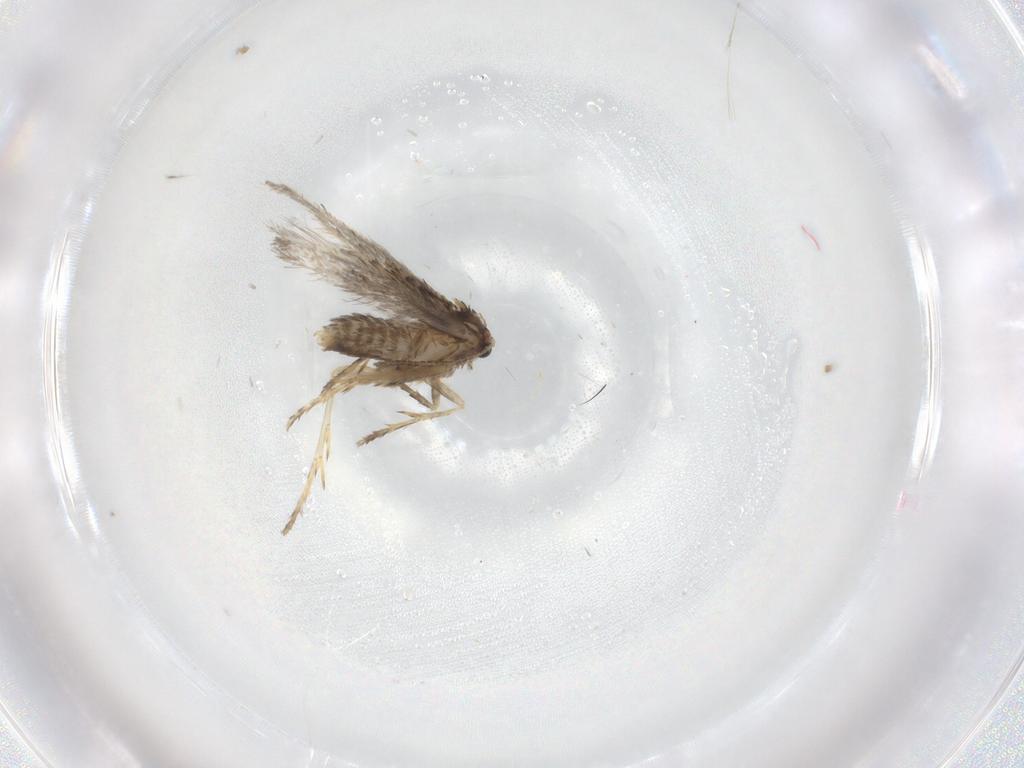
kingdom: Animalia
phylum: Arthropoda
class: Insecta
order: Lepidoptera
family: Nepticulidae
